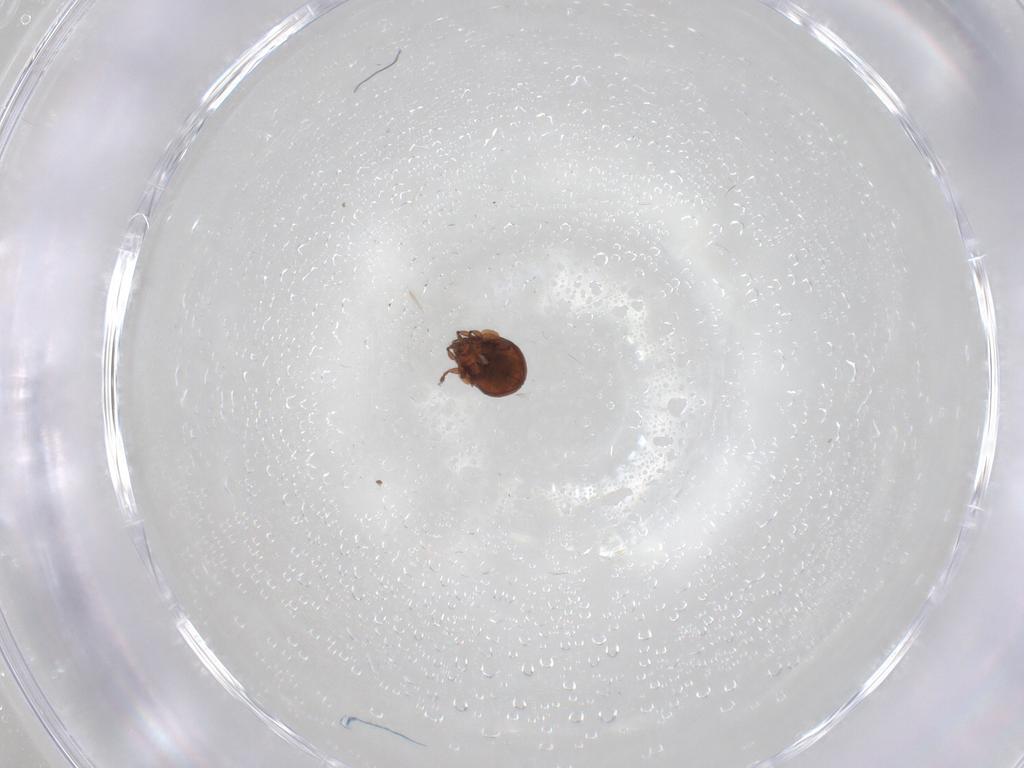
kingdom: Animalia
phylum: Arthropoda
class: Arachnida
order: Sarcoptiformes
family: Humerobatidae
